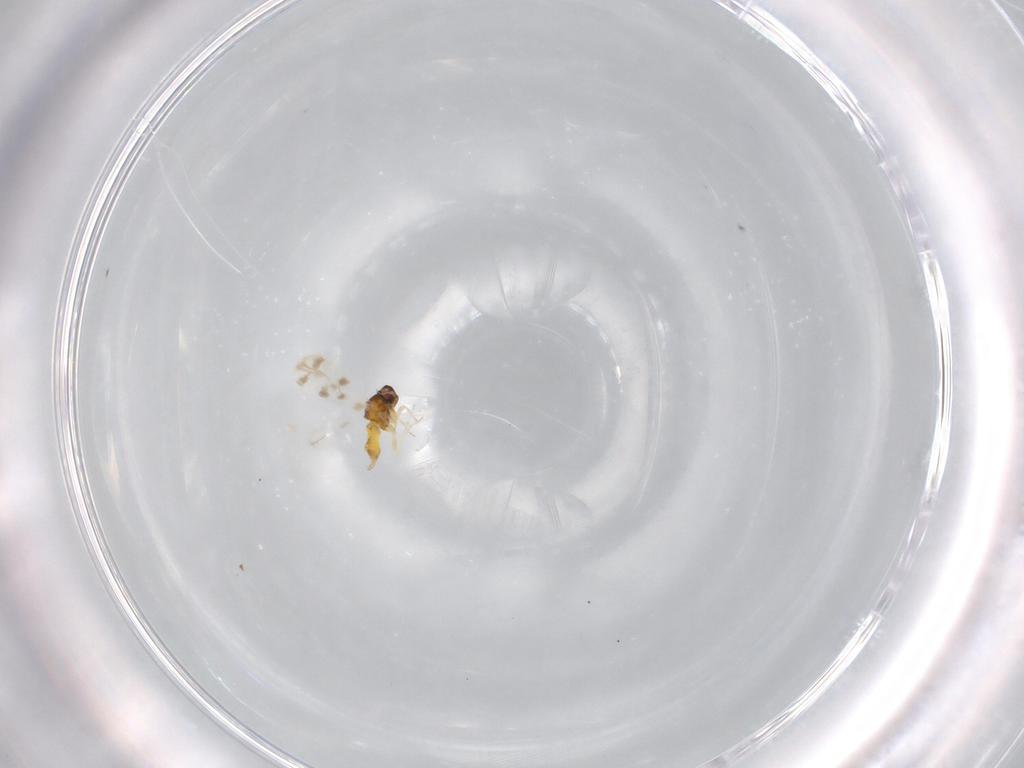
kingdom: Animalia
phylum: Arthropoda
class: Insecta
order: Hemiptera
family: Aleyrodidae
